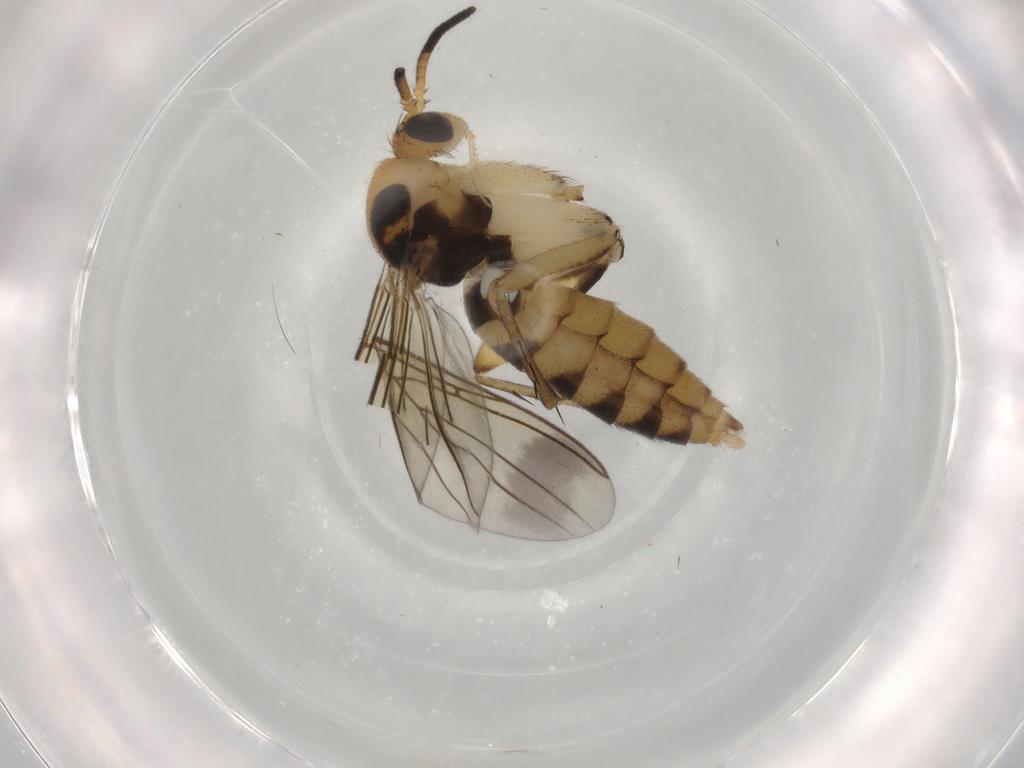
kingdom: Animalia
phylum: Arthropoda
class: Insecta
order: Diptera
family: Mycetophilidae
